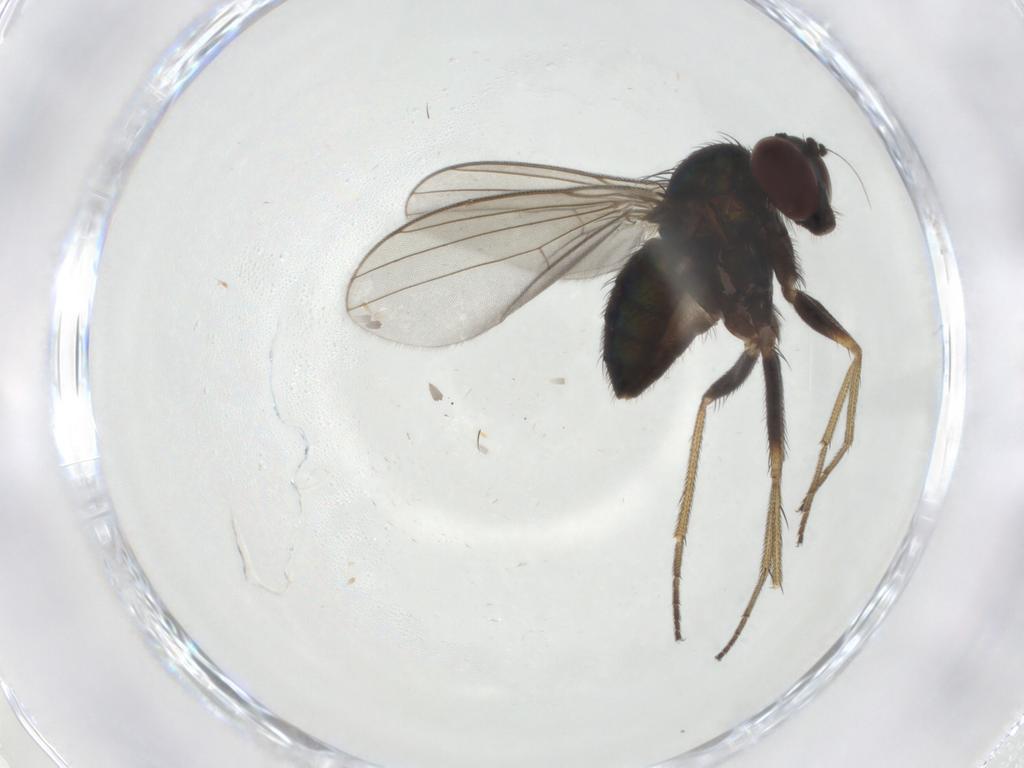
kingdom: Animalia
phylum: Arthropoda
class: Insecta
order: Diptera
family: Chloropidae
